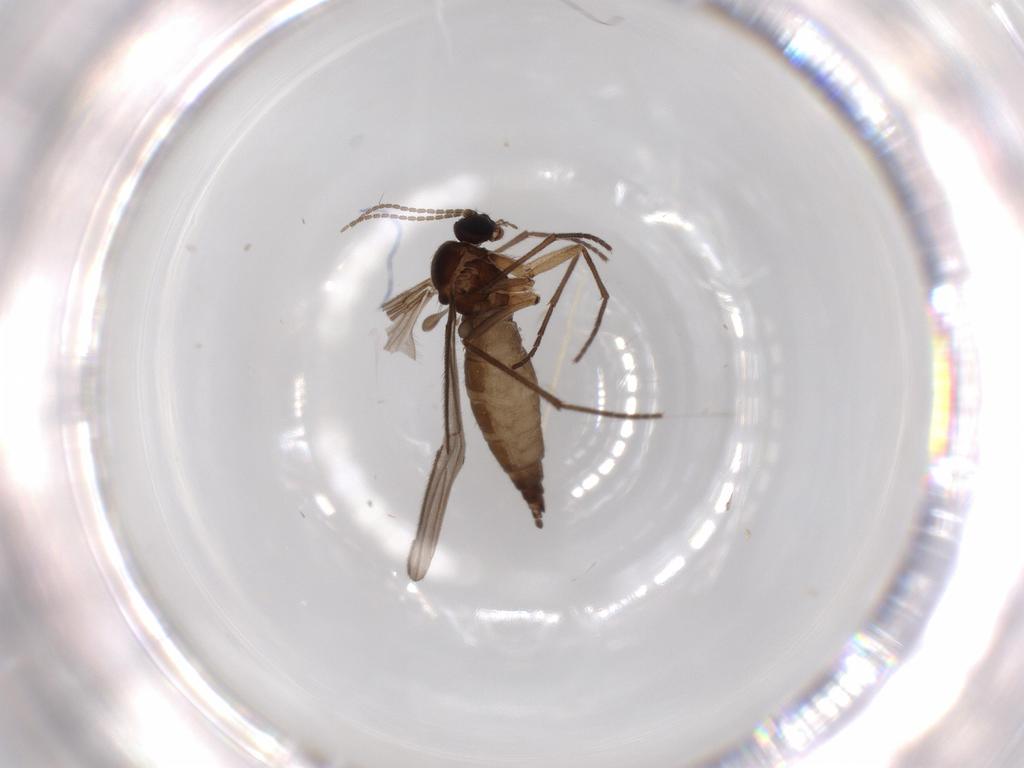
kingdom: Animalia
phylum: Arthropoda
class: Insecta
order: Diptera
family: Sciaridae
